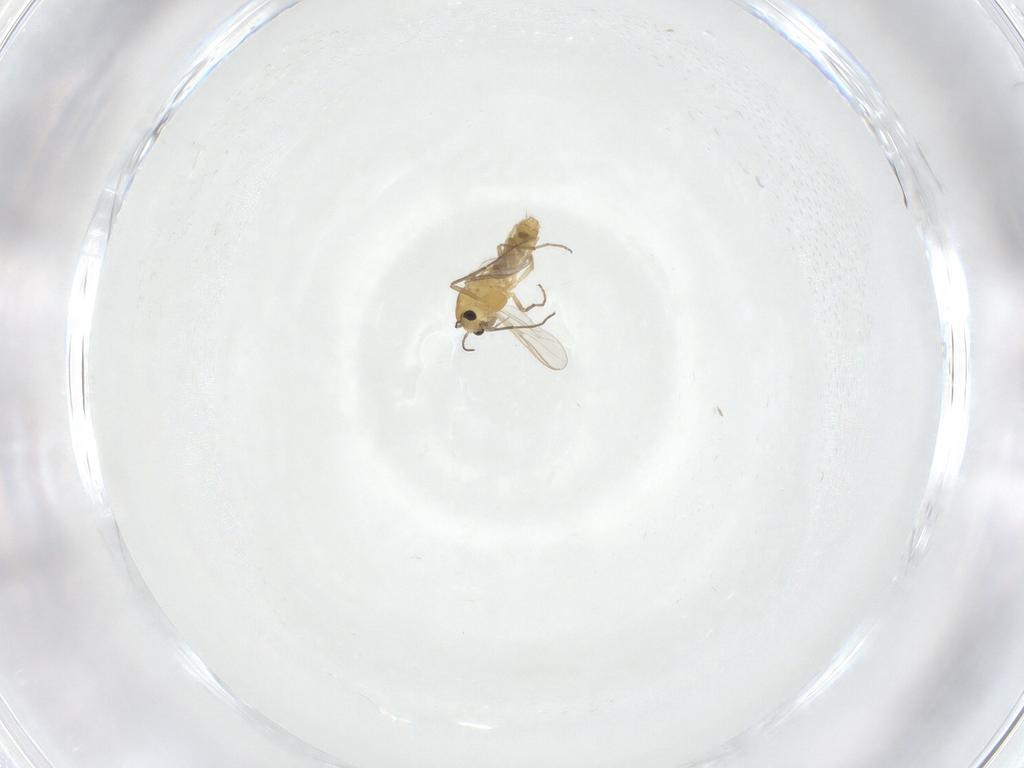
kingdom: Animalia
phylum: Arthropoda
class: Insecta
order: Diptera
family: Chironomidae
